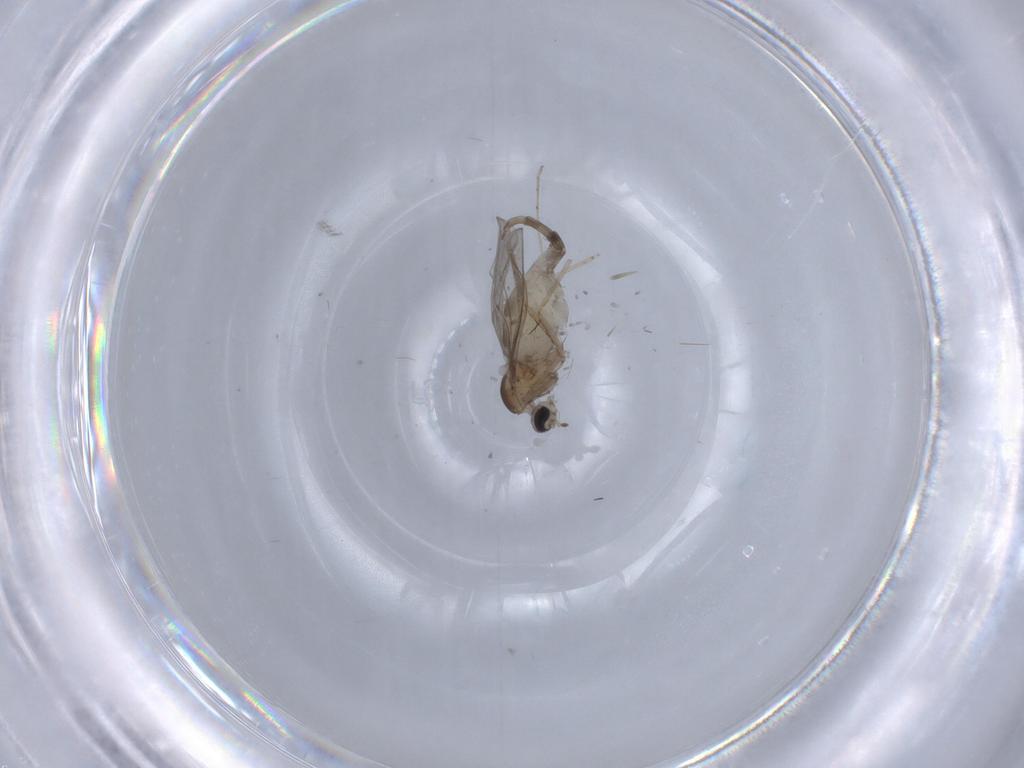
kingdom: Animalia
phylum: Arthropoda
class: Insecta
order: Diptera
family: Cecidomyiidae
